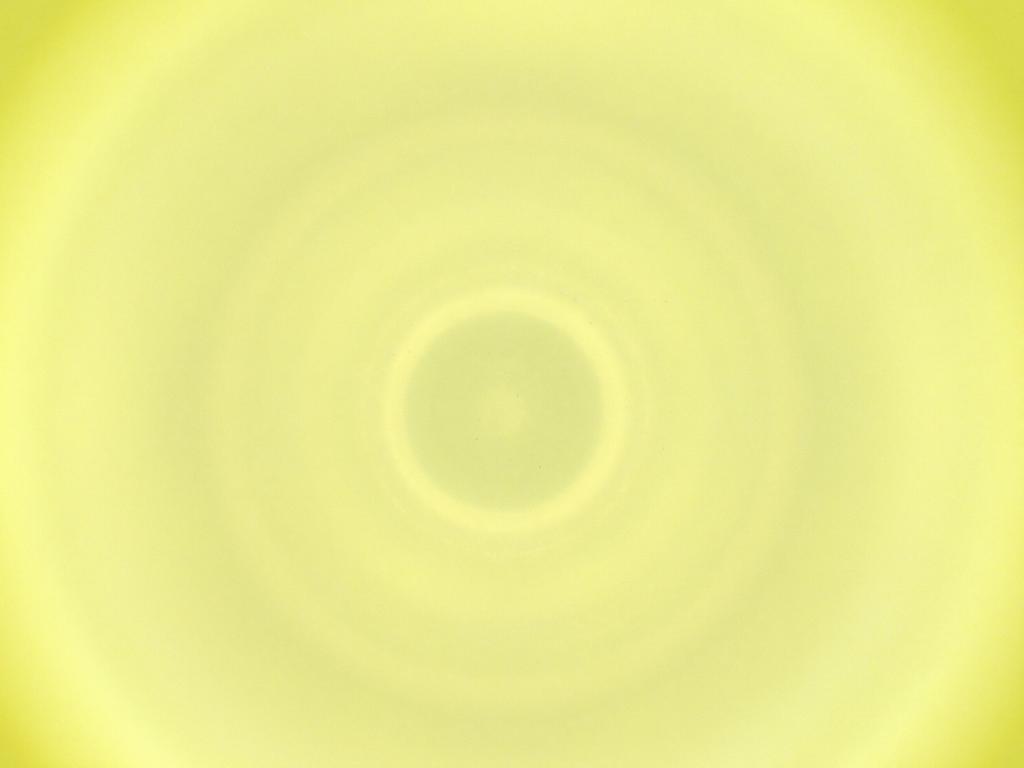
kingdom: Animalia
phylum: Arthropoda
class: Insecta
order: Diptera
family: Cecidomyiidae
